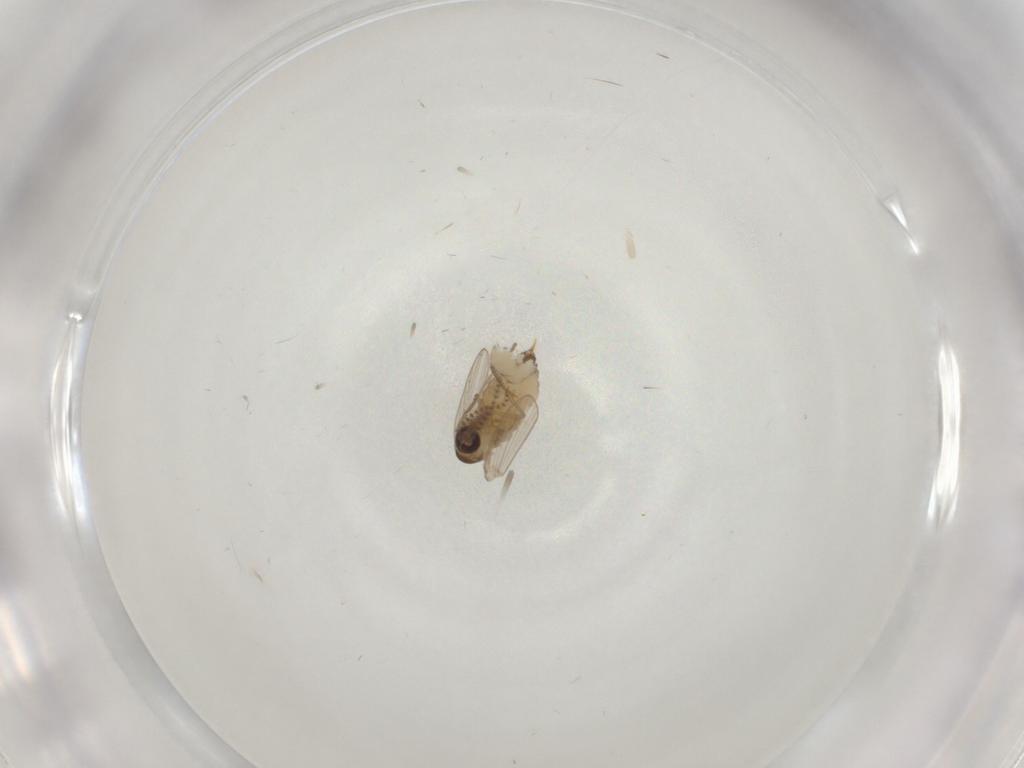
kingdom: Animalia
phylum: Arthropoda
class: Insecta
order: Diptera
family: Psychodidae
